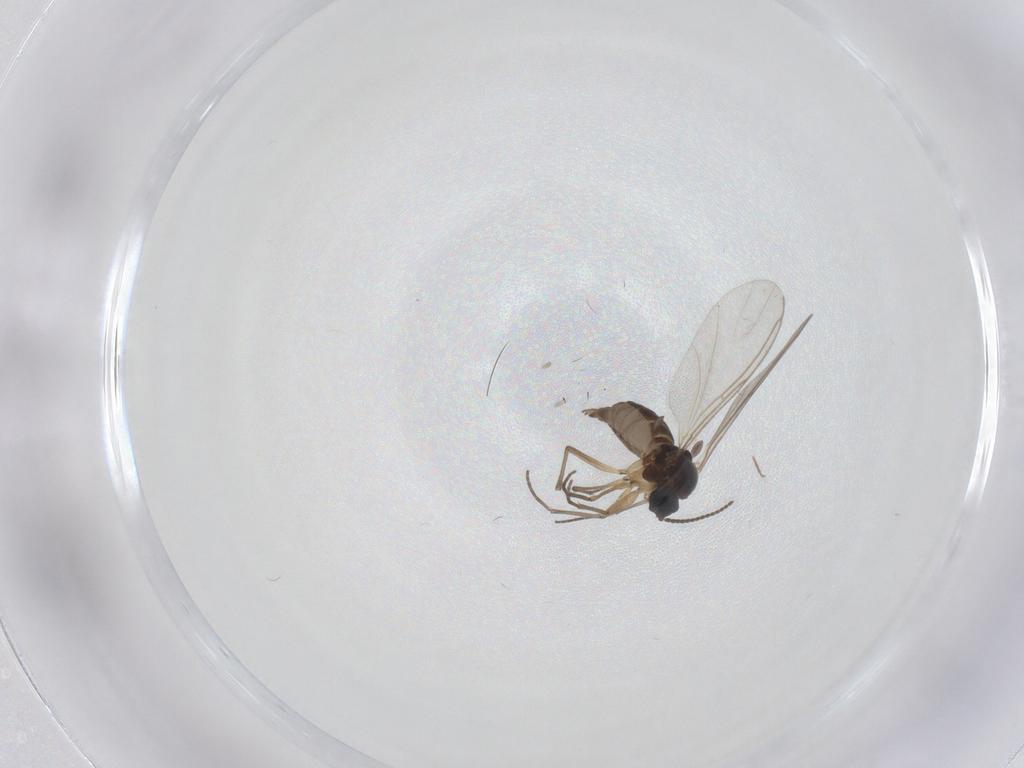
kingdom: Animalia
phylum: Arthropoda
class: Insecta
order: Diptera
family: Sciaridae
